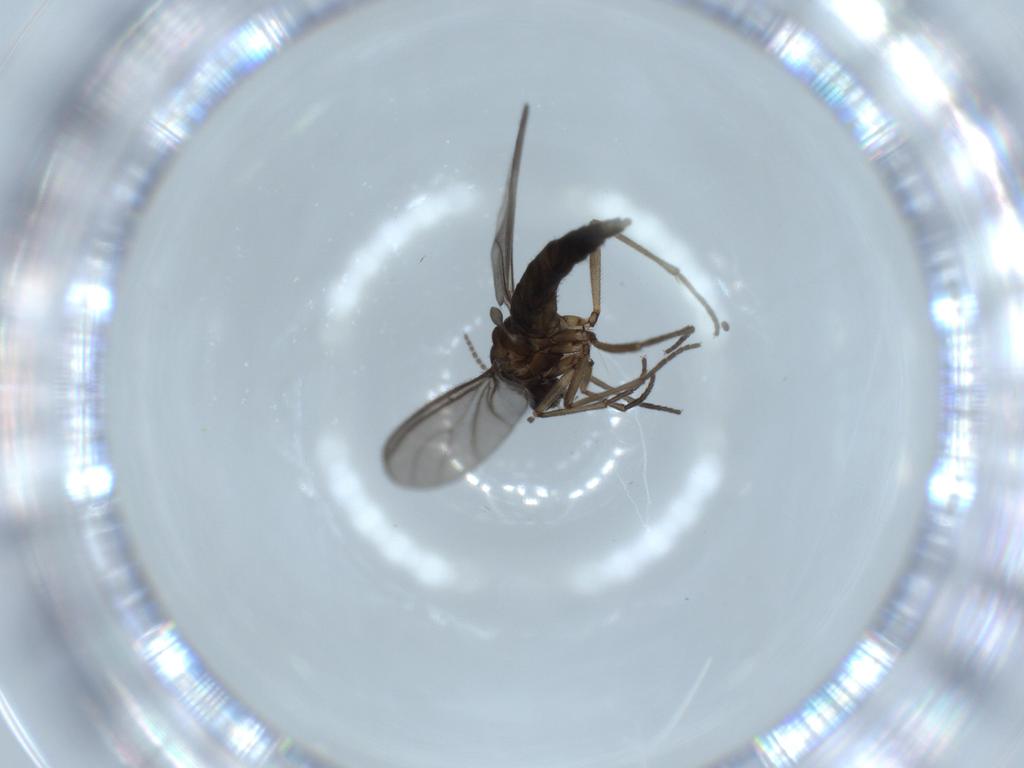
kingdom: Animalia
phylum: Arthropoda
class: Insecta
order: Diptera
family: Sciaridae
